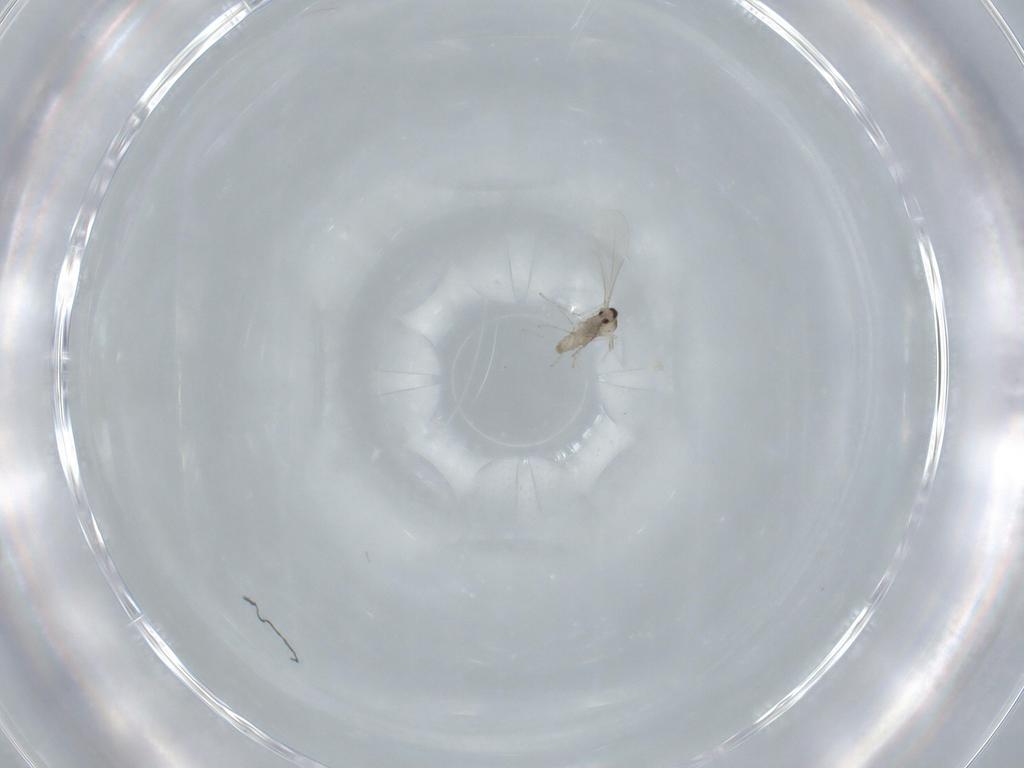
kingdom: Animalia
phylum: Arthropoda
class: Insecta
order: Diptera
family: Cecidomyiidae
